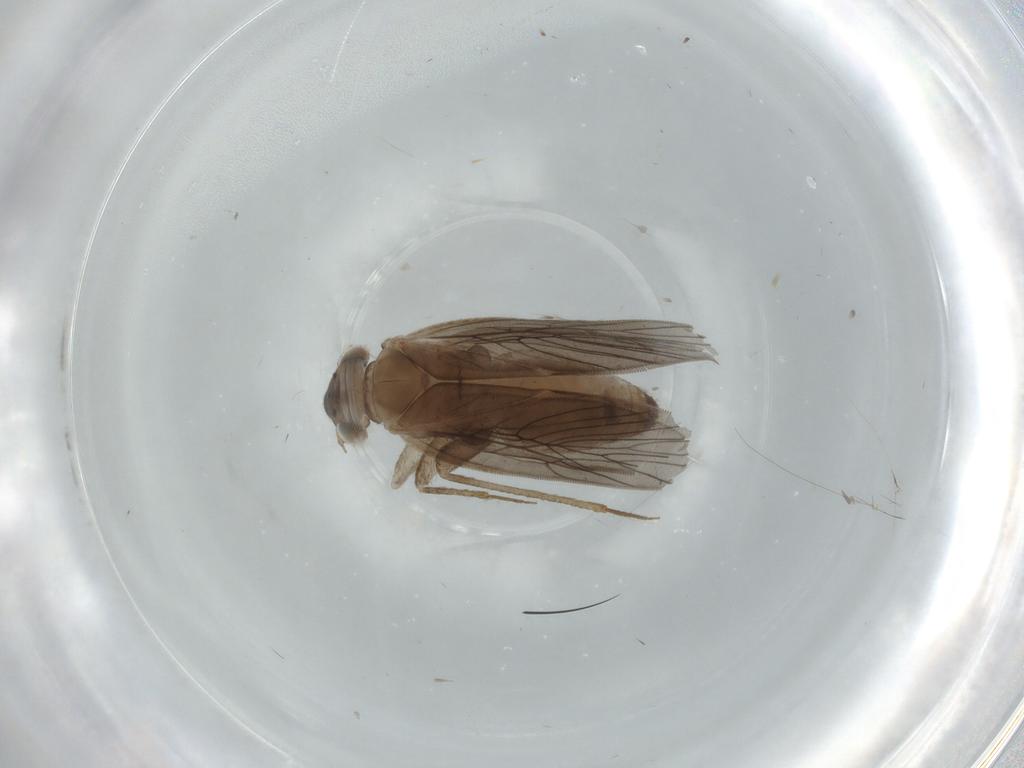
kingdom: Animalia
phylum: Arthropoda
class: Insecta
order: Psocodea
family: Lepidopsocidae
